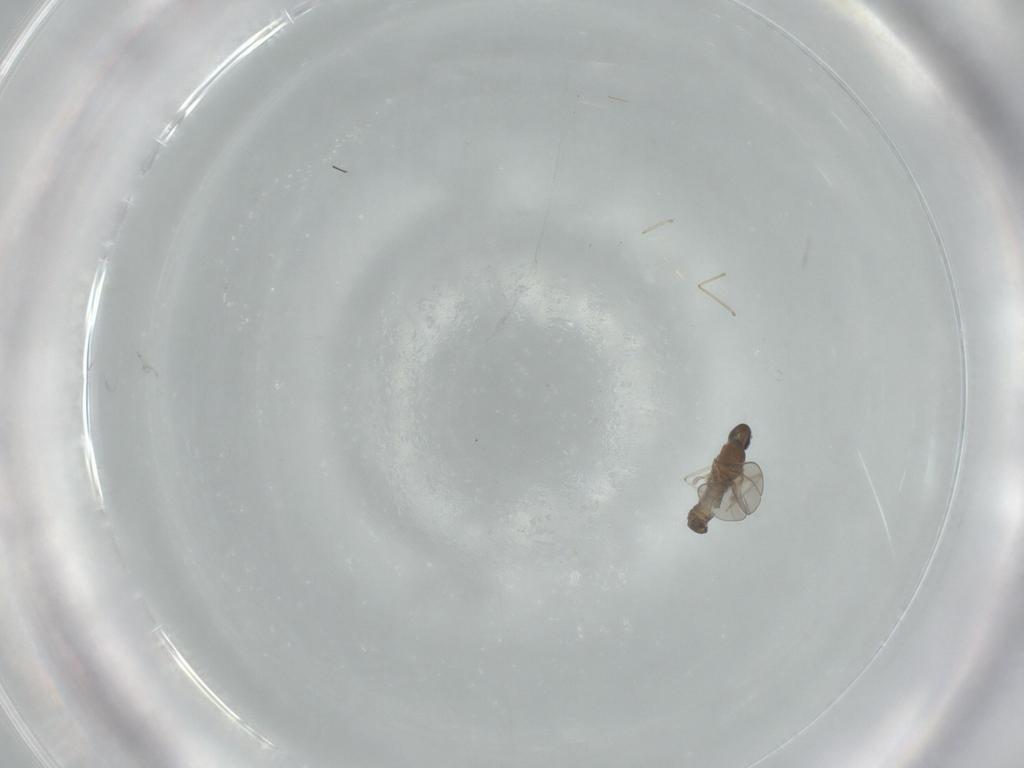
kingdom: Animalia
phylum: Arthropoda
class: Insecta
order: Diptera
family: Cecidomyiidae
